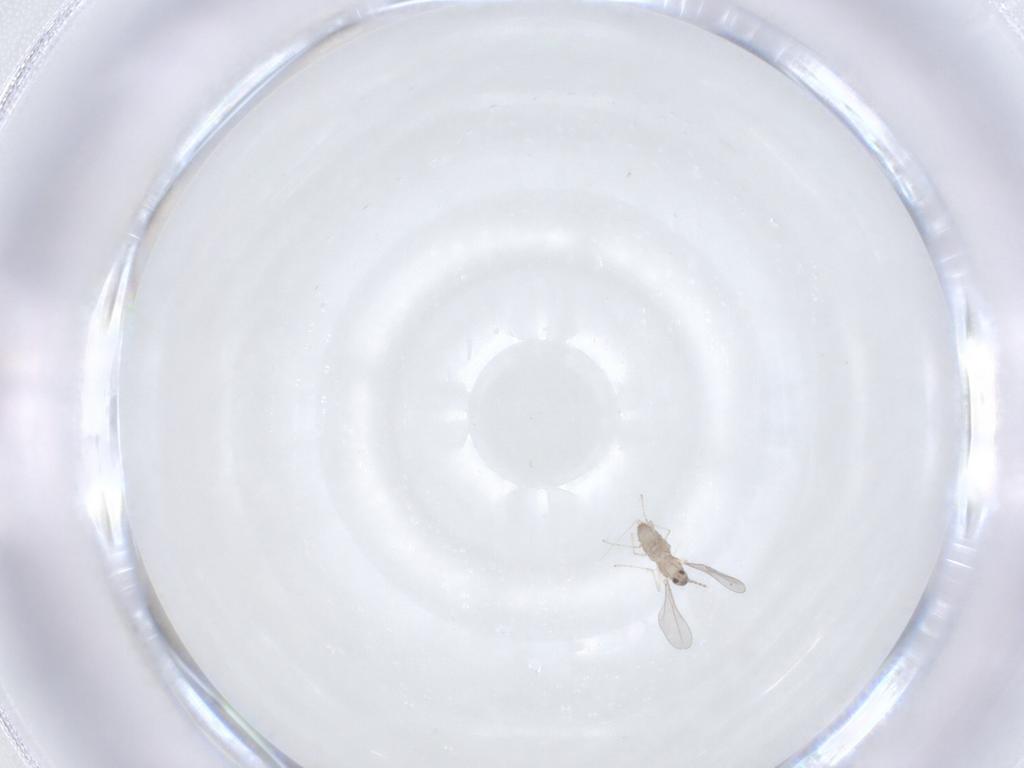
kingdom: Animalia
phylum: Arthropoda
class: Insecta
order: Diptera
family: Cecidomyiidae
